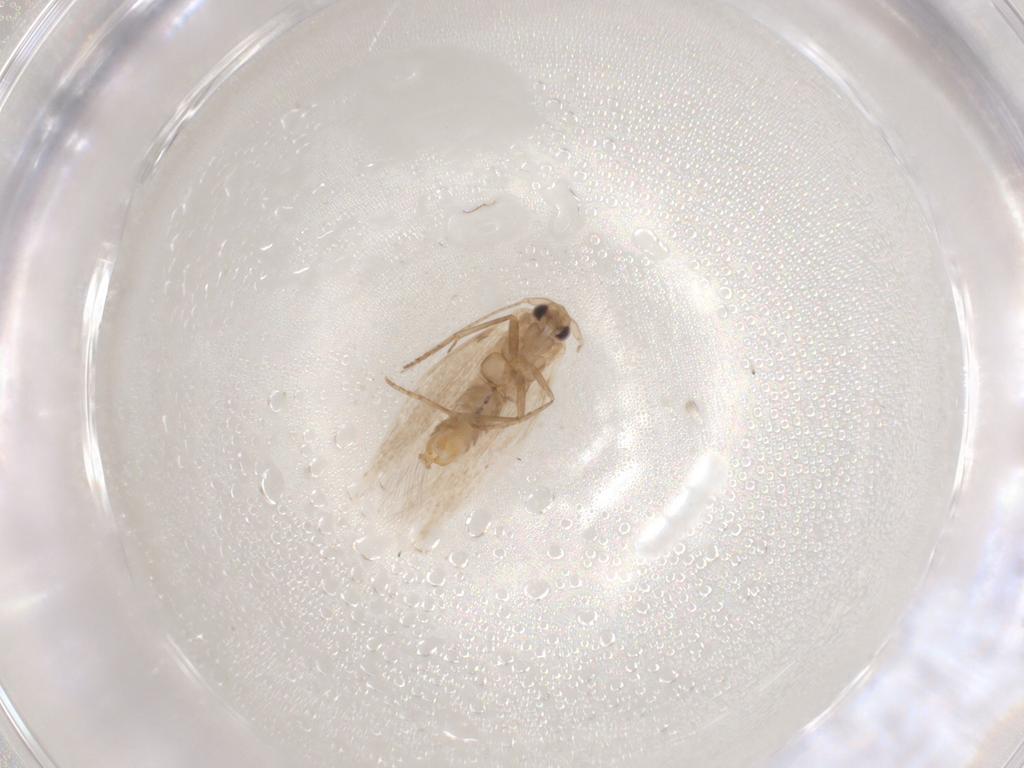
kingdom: Animalia
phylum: Arthropoda
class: Insecta
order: Lepidoptera
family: Bucculatricidae
